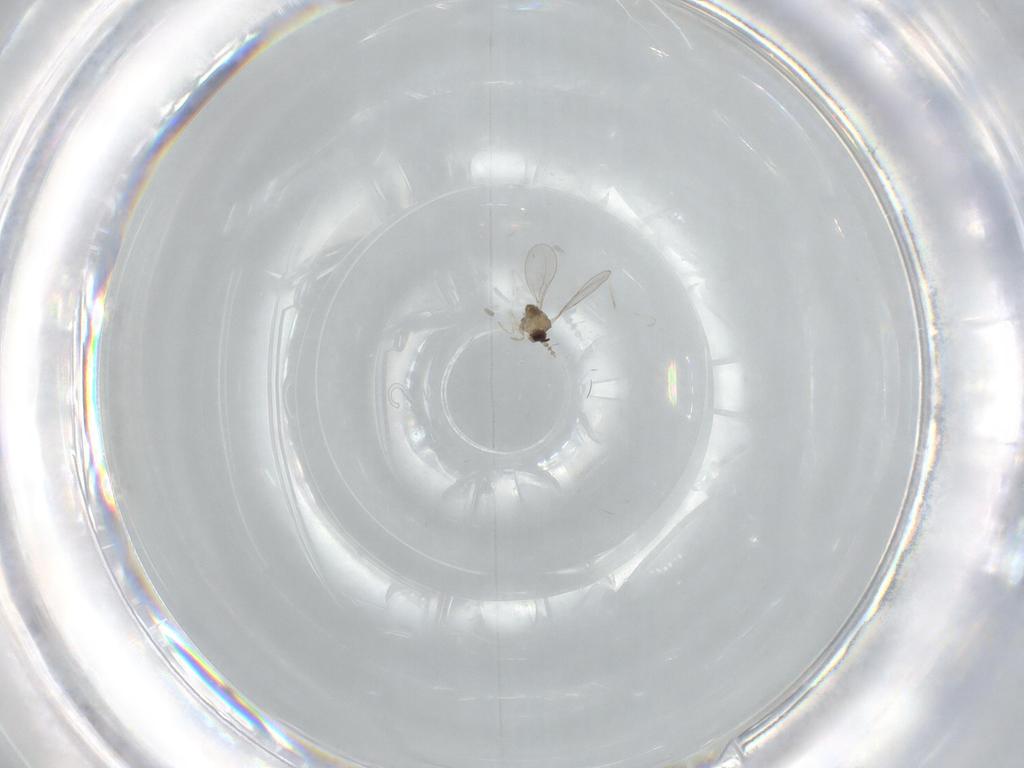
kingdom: Animalia
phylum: Arthropoda
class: Insecta
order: Diptera
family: Cecidomyiidae
